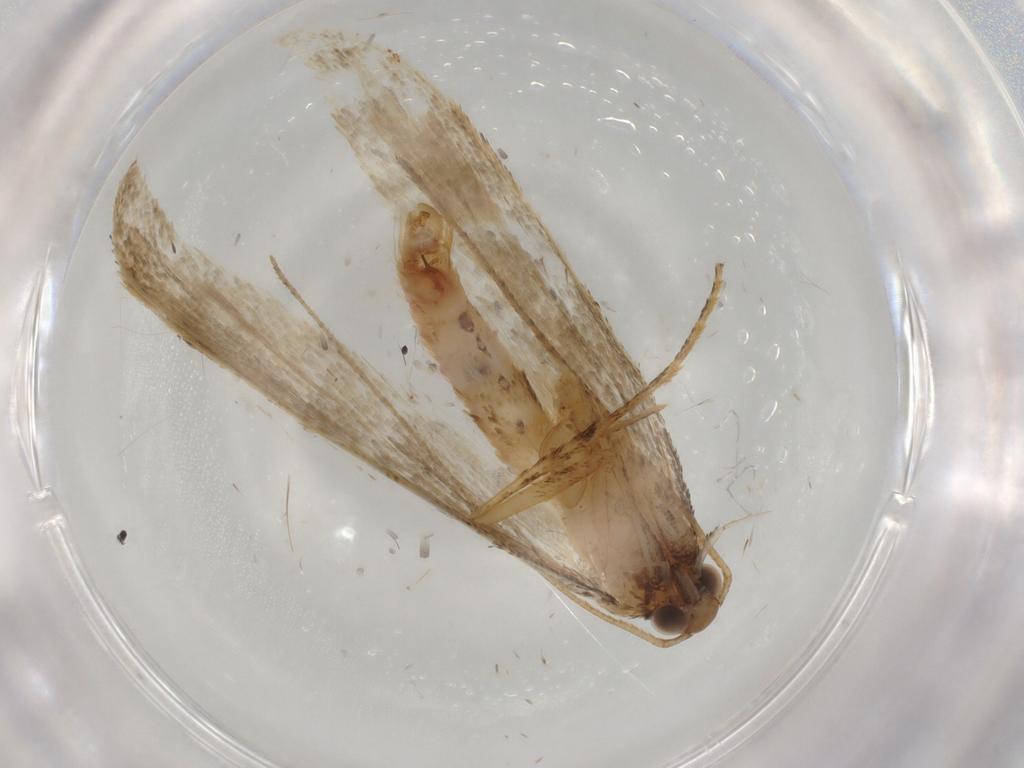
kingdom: Animalia
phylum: Arthropoda
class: Insecta
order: Lepidoptera
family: Crambidae
